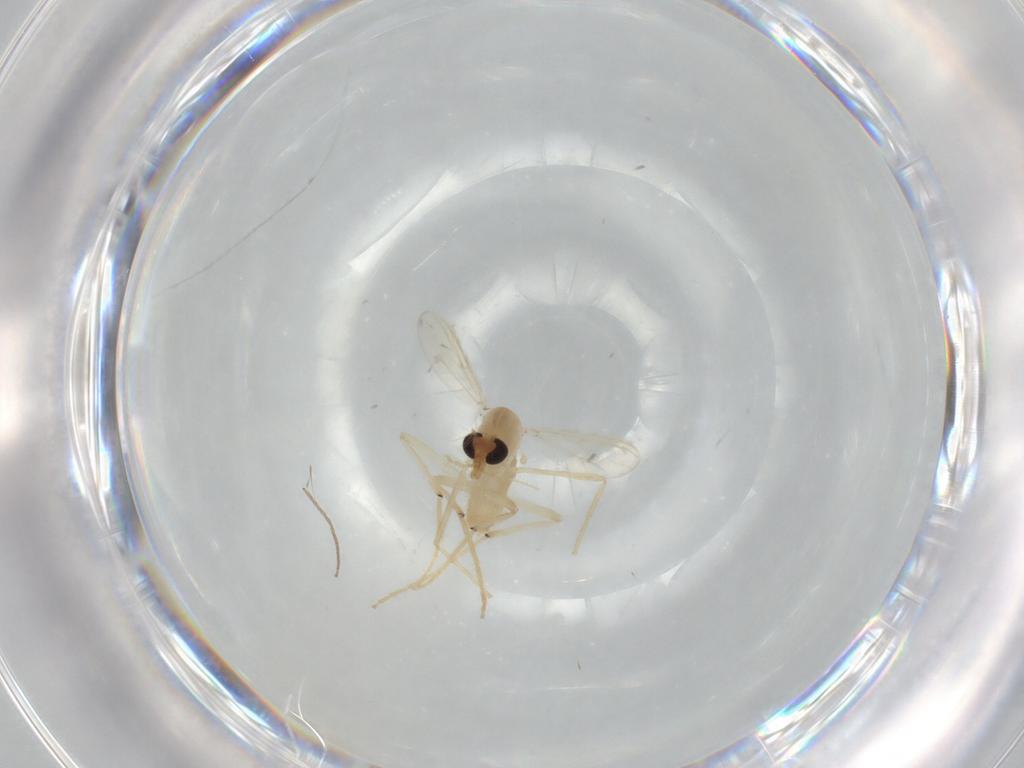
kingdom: Animalia
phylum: Arthropoda
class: Insecta
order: Diptera
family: Chironomidae
